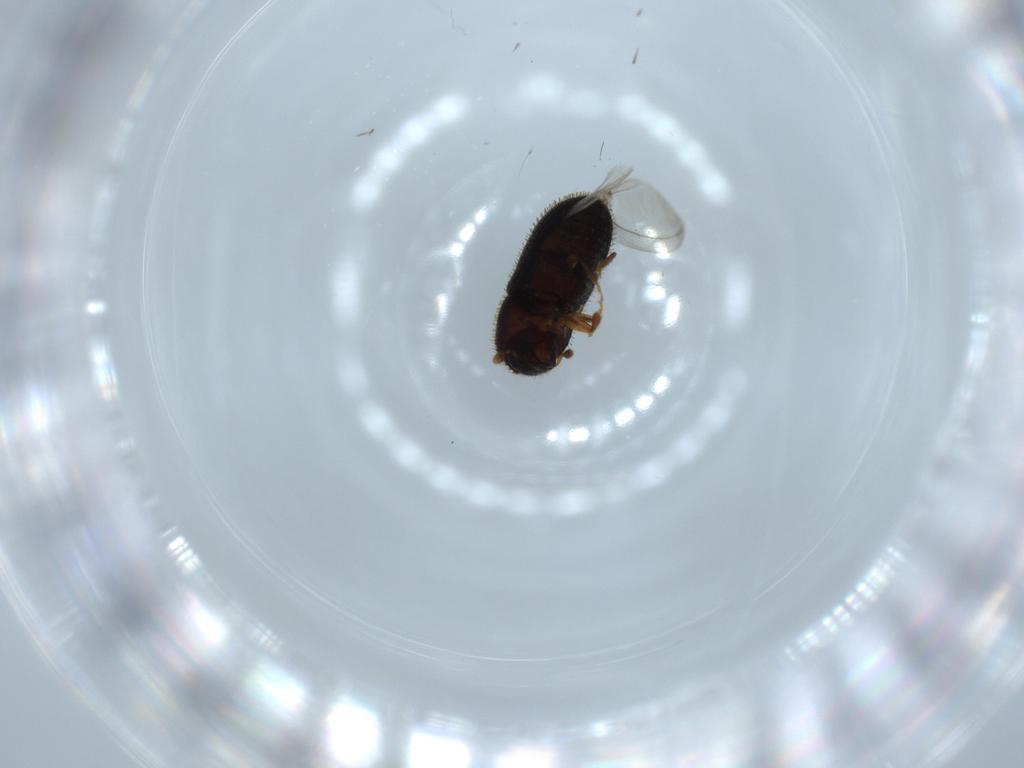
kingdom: Animalia
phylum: Arthropoda
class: Insecta
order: Coleoptera
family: Curculionidae
